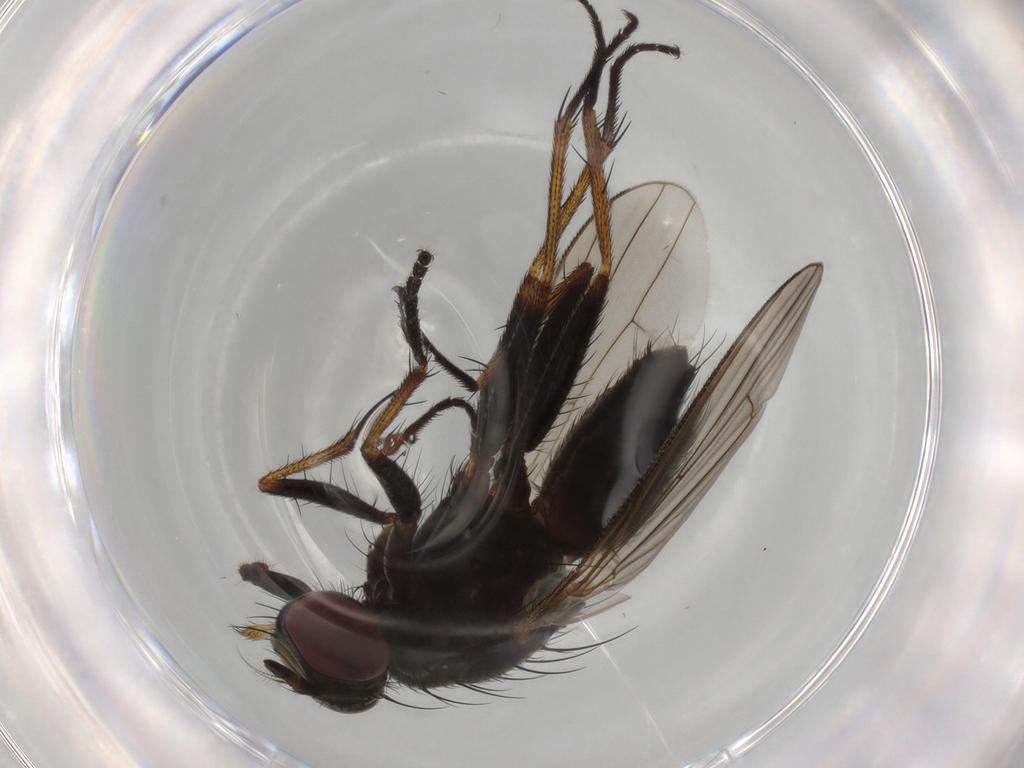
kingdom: Animalia
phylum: Arthropoda
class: Insecta
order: Diptera
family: Muscidae
